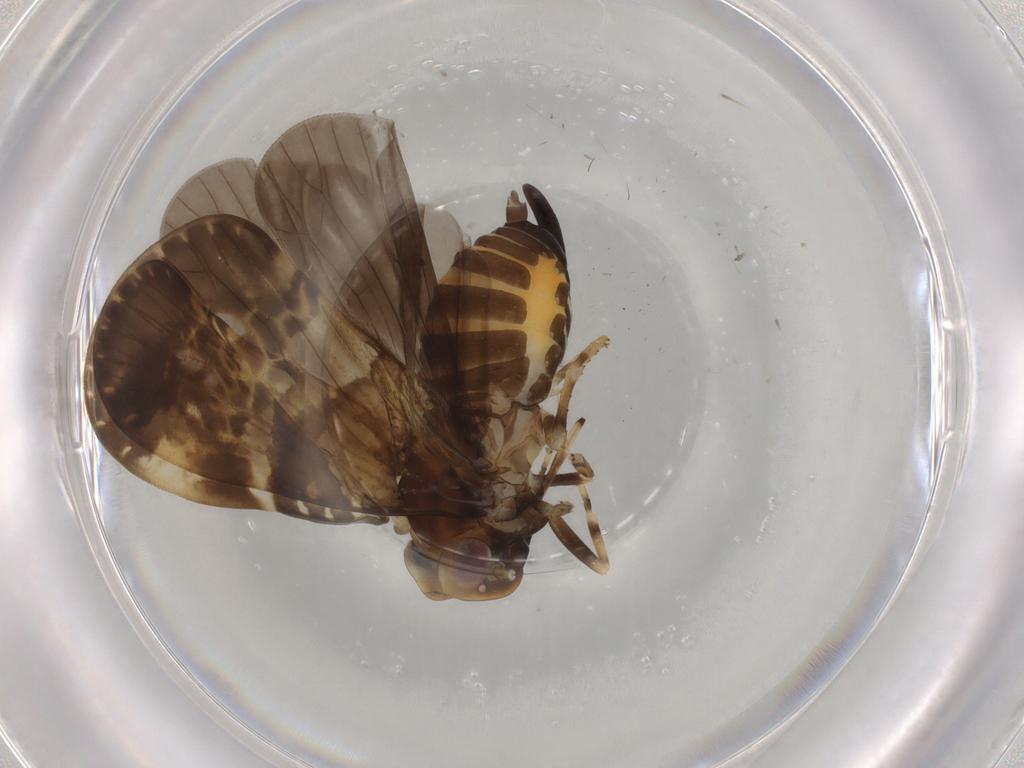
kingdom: Animalia
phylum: Arthropoda
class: Insecta
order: Hemiptera
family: Cixiidae
